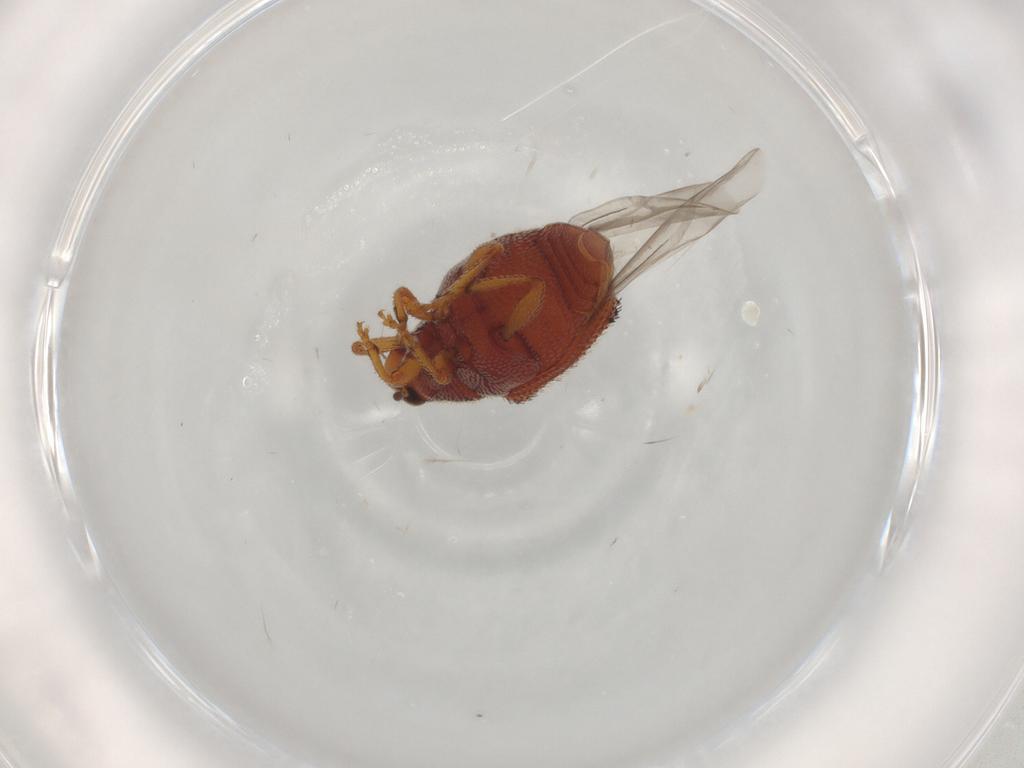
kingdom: Animalia
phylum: Arthropoda
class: Insecta
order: Coleoptera
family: Curculionidae
